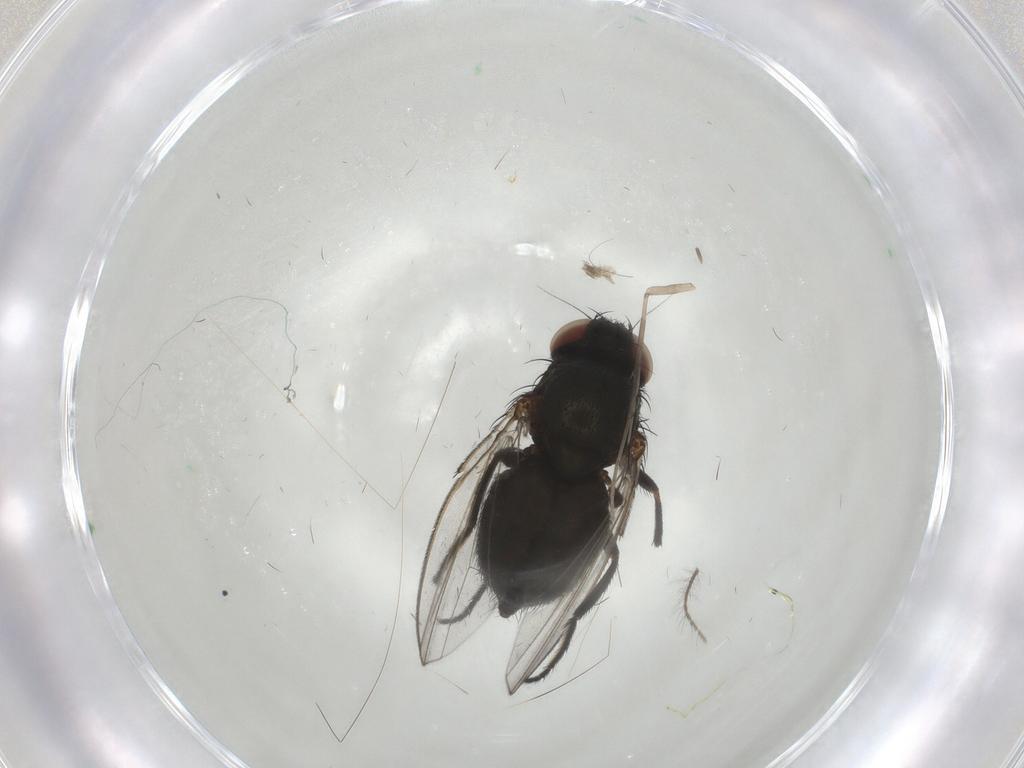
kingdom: Animalia
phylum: Arthropoda
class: Insecta
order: Diptera
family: Milichiidae
